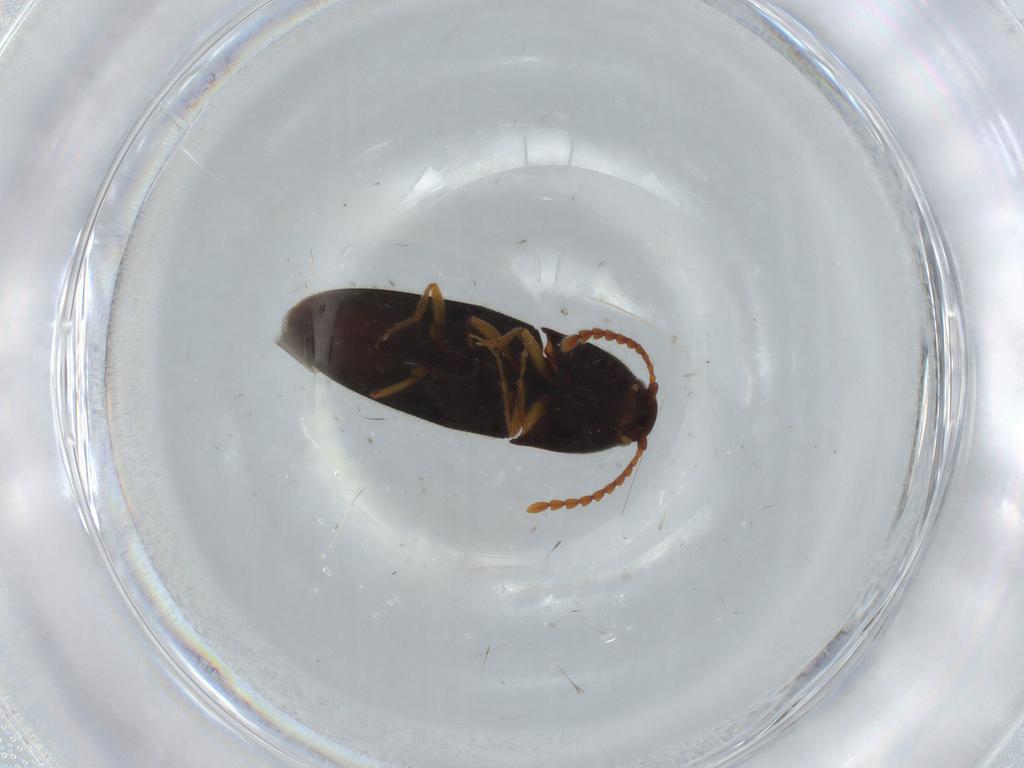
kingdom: Animalia
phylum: Arthropoda
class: Insecta
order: Coleoptera
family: Elateridae
